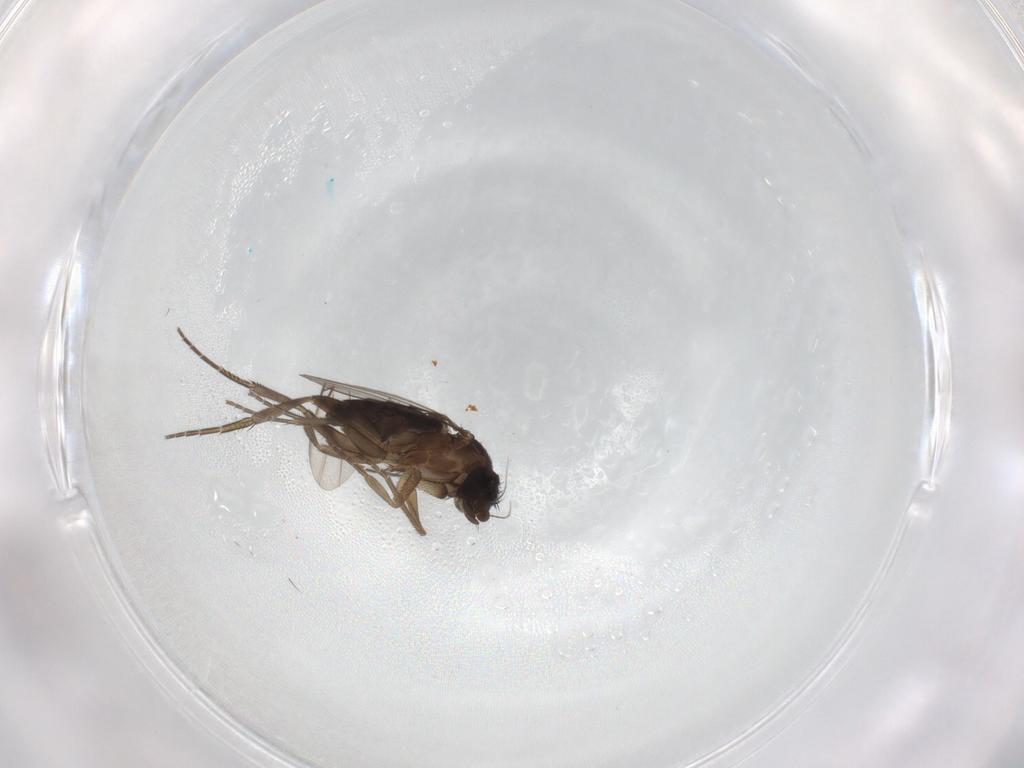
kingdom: Animalia
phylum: Arthropoda
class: Insecta
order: Diptera
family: Phoridae
